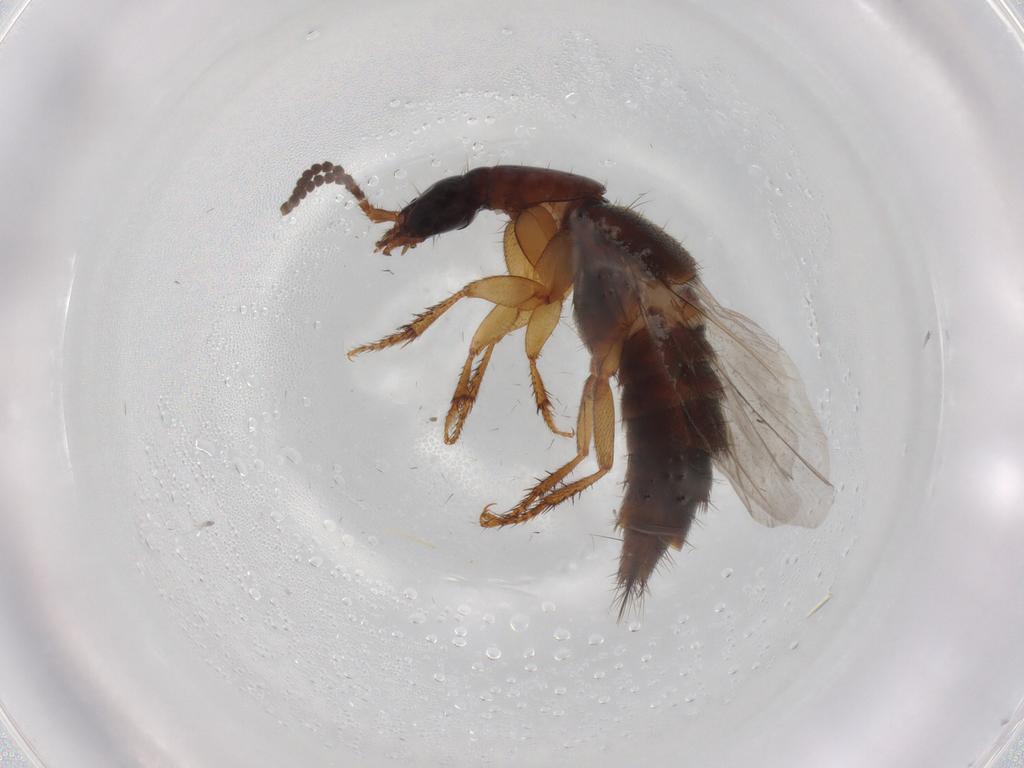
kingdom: Animalia
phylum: Arthropoda
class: Insecta
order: Coleoptera
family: Staphylinidae
